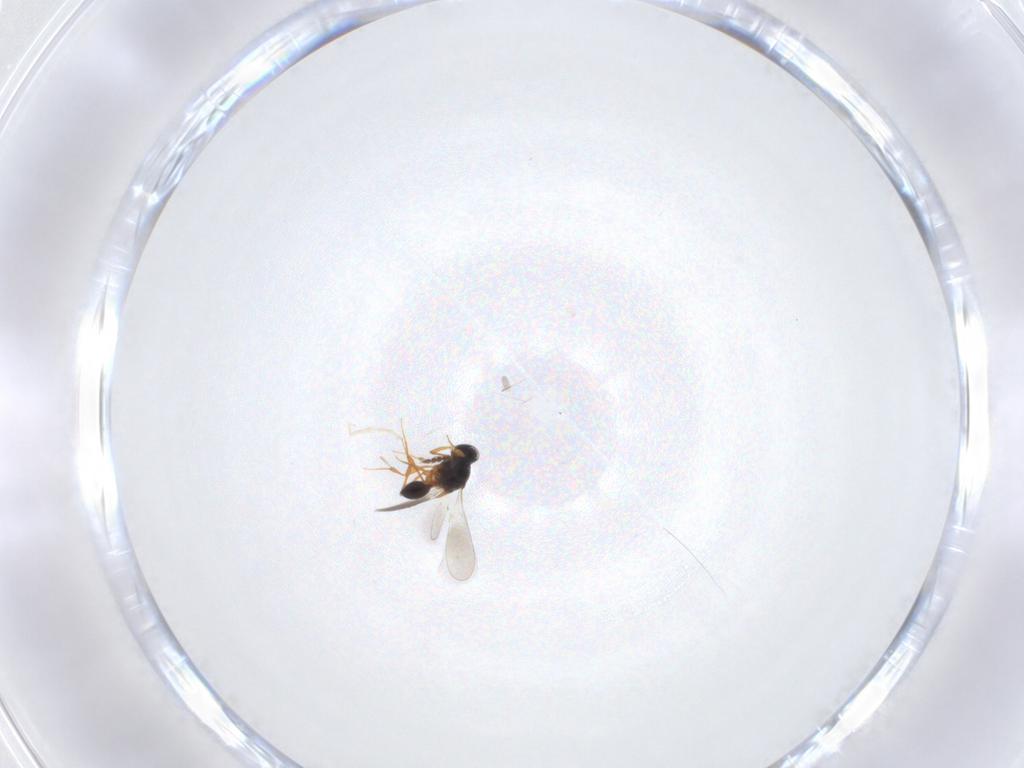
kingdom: Animalia
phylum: Arthropoda
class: Insecta
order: Hymenoptera
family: Platygastridae
